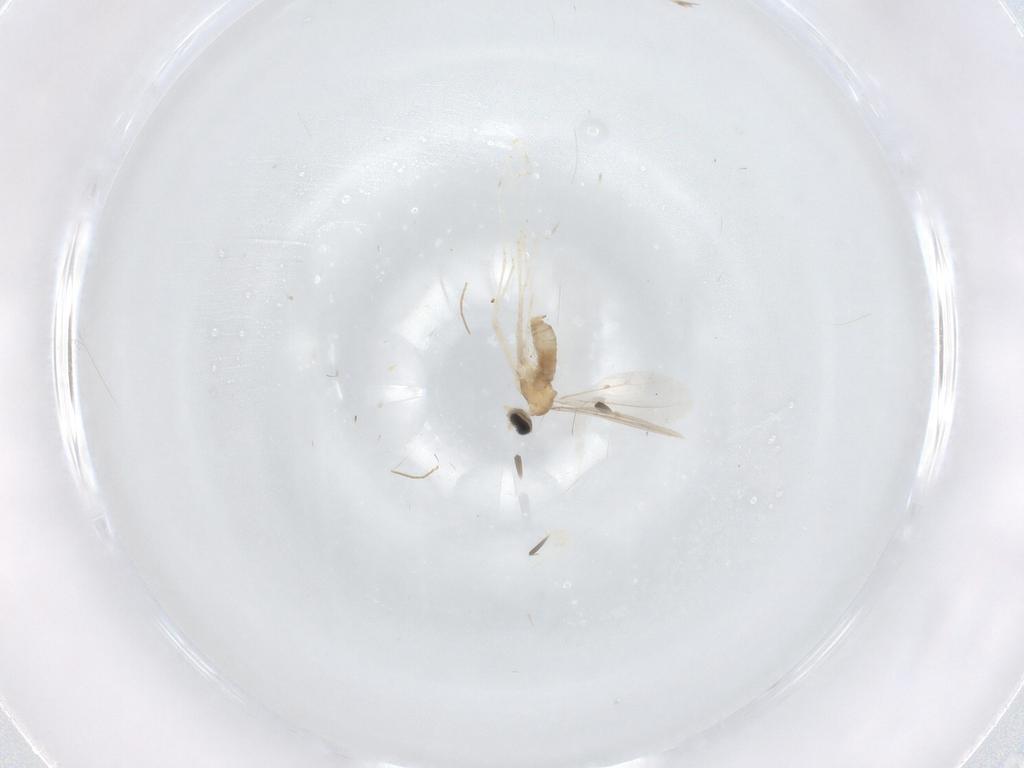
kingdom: Animalia
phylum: Arthropoda
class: Insecta
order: Diptera
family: Cecidomyiidae
